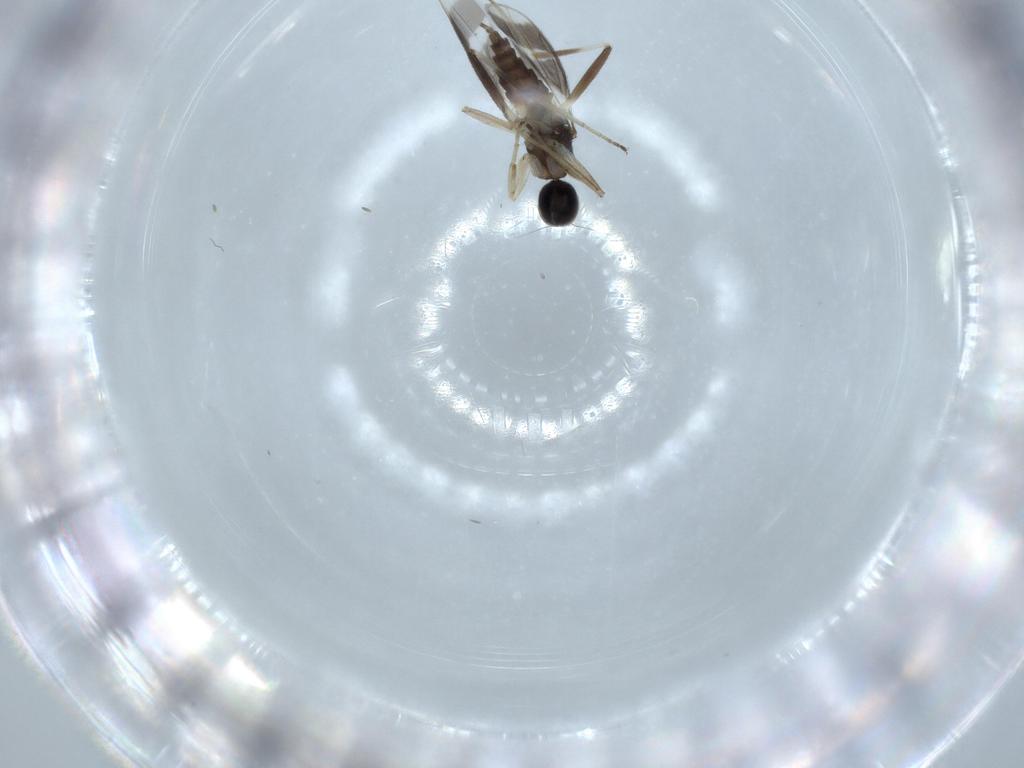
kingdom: Animalia
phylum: Arthropoda
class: Insecta
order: Diptera
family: Hybotidae
